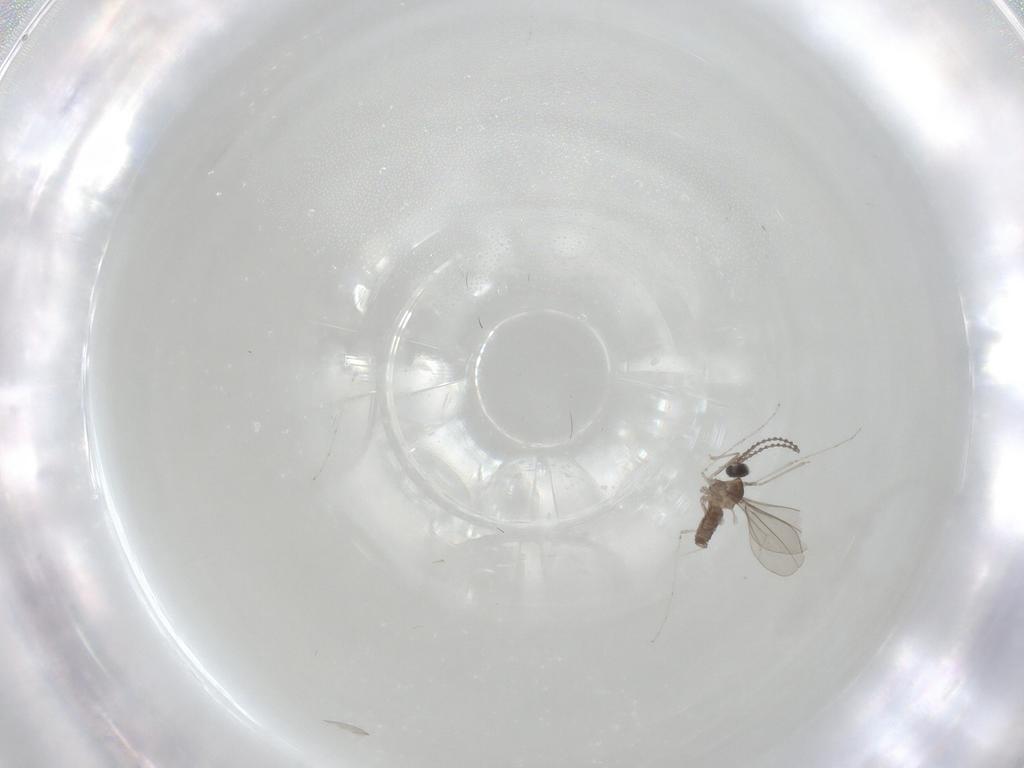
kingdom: Animalia
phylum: Arthropoda
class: Insecta
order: Diptera
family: Cecidomyiidae
